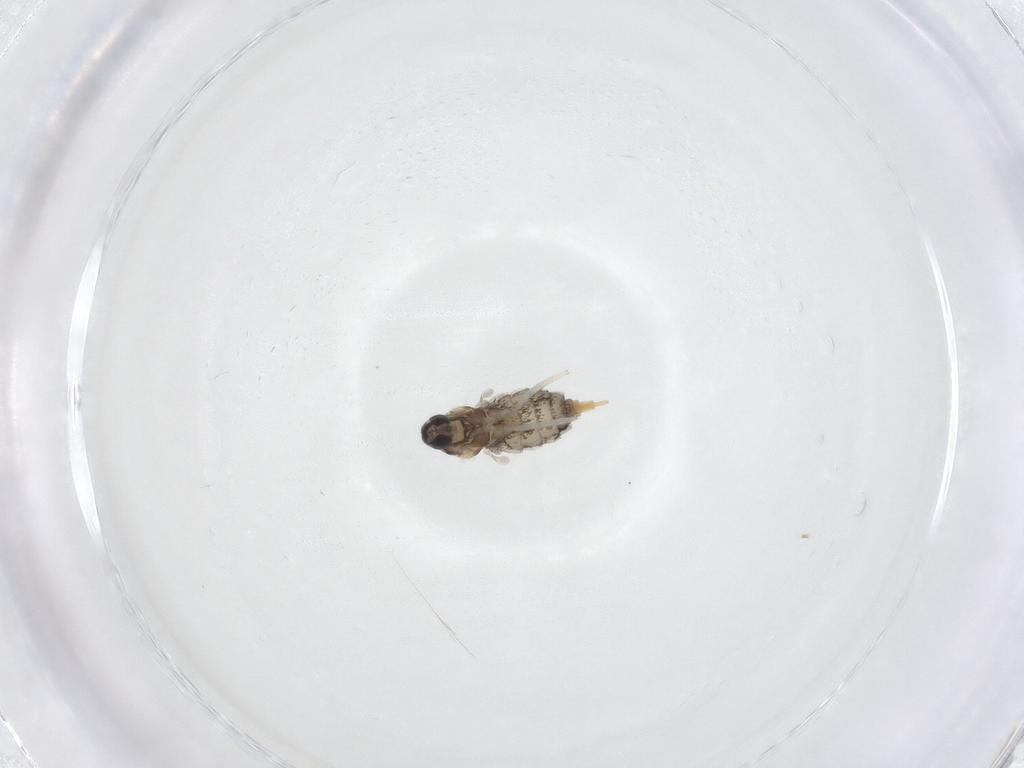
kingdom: Animalia
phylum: Arthropoda
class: Insecta
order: Diptera
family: Cecidomyiidae
